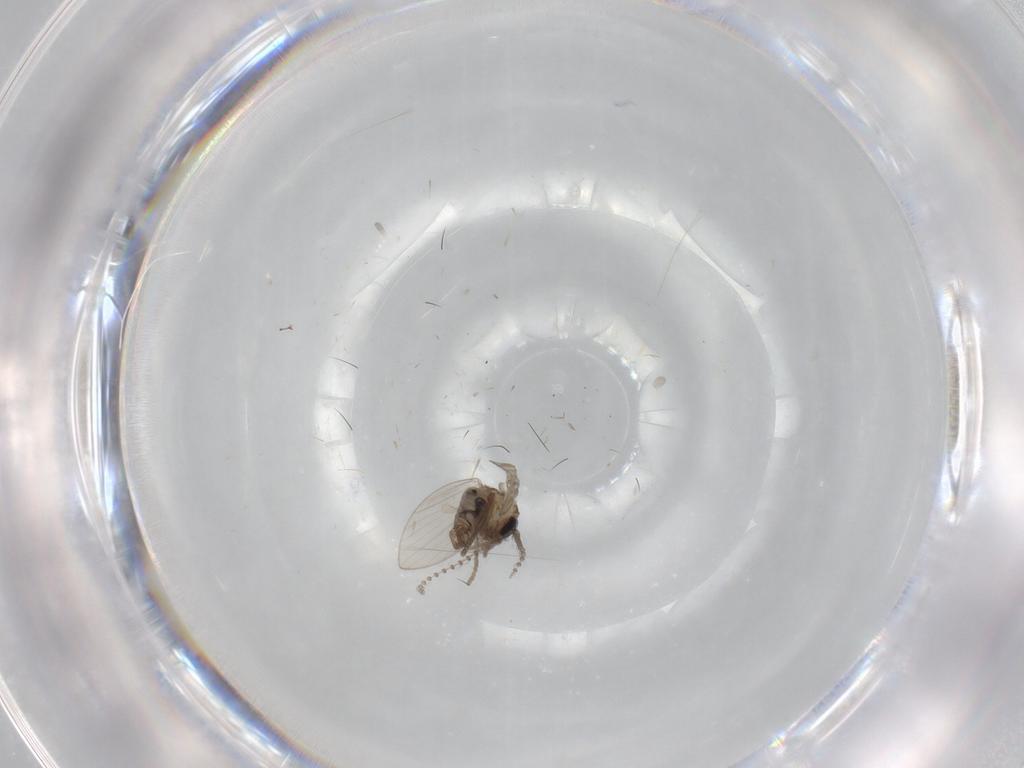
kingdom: Animalia
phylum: Arthropoda
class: Insecta
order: Diptera
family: Psychodidae
